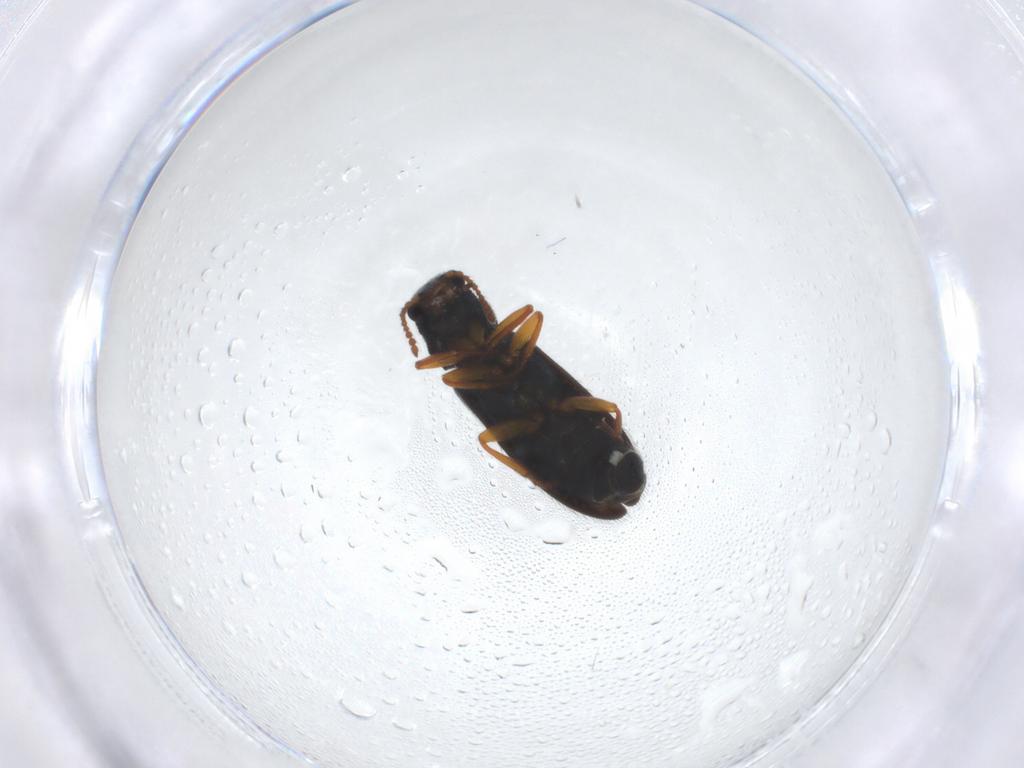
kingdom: Animalia
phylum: Arthropoda
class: Insecta
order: Coleoptera
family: Melyridae
